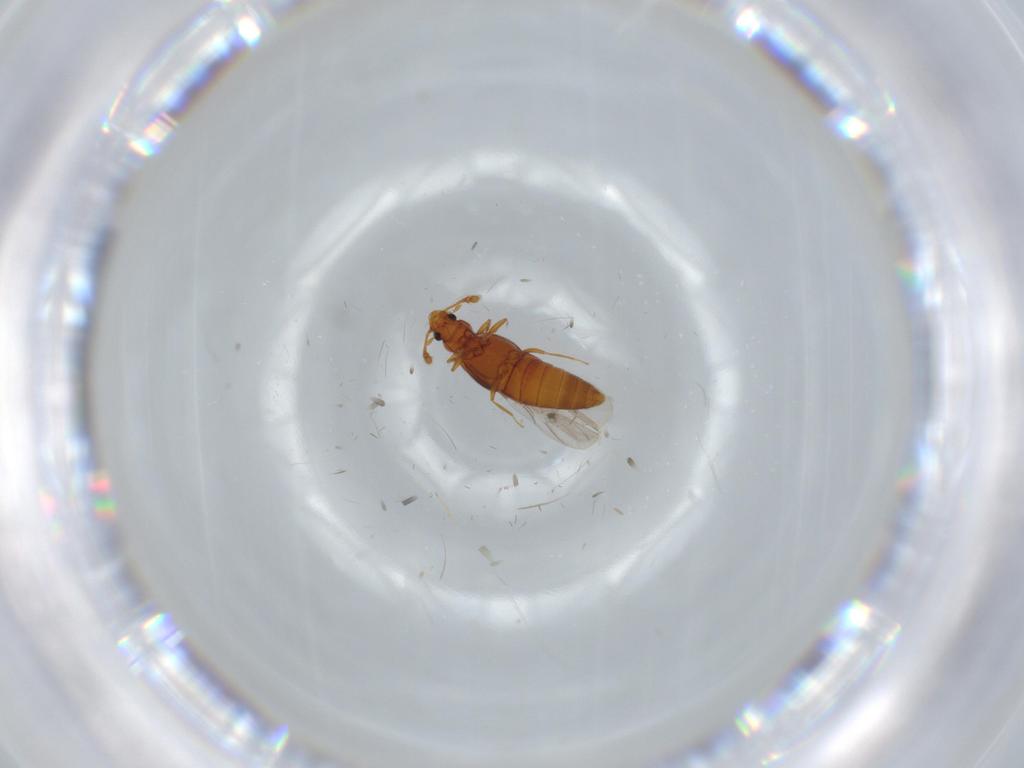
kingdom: Animalia
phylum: Arthropoda
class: Insecta
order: Coleoptera
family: Staphylinidae
